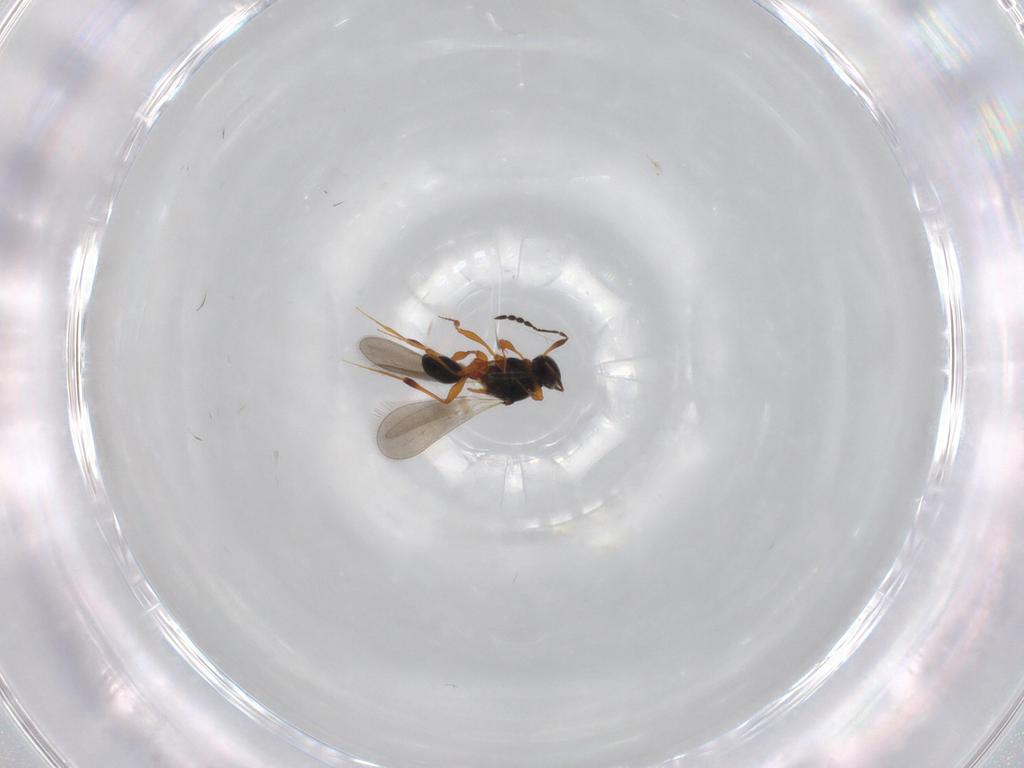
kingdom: Animalia
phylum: Arthropoda
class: Insecta
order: Hymenoptera
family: Platygastridae
